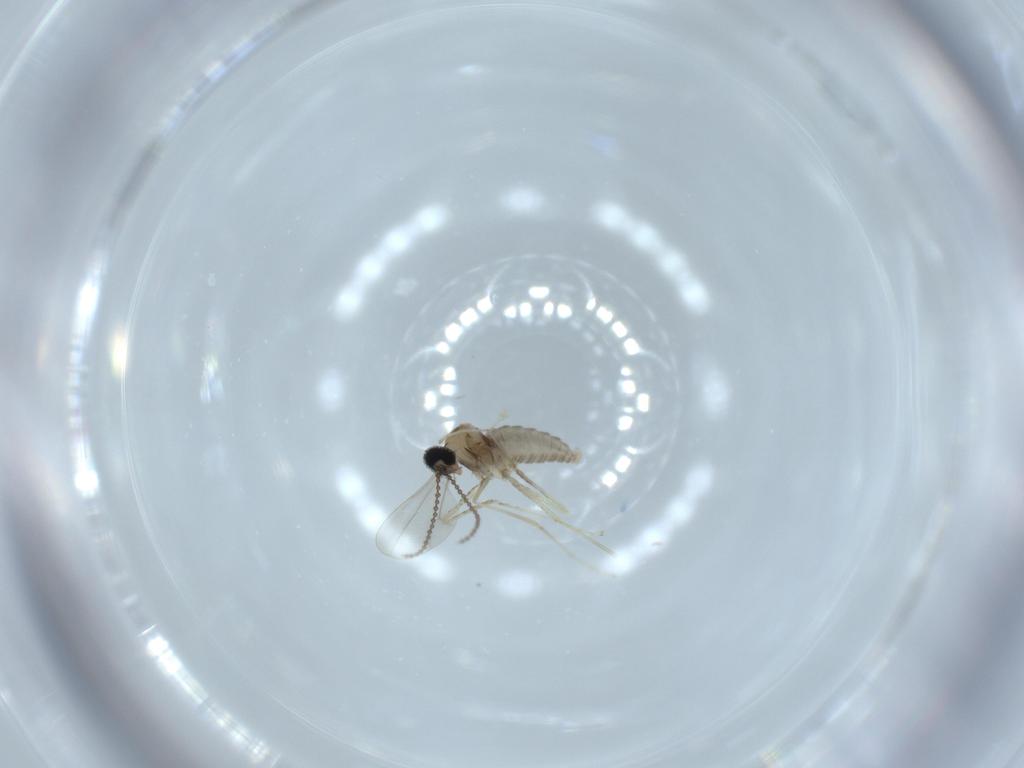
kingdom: Animalia
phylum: Arthropoda
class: Insecta
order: Diptera
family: Cecidomyiidae
